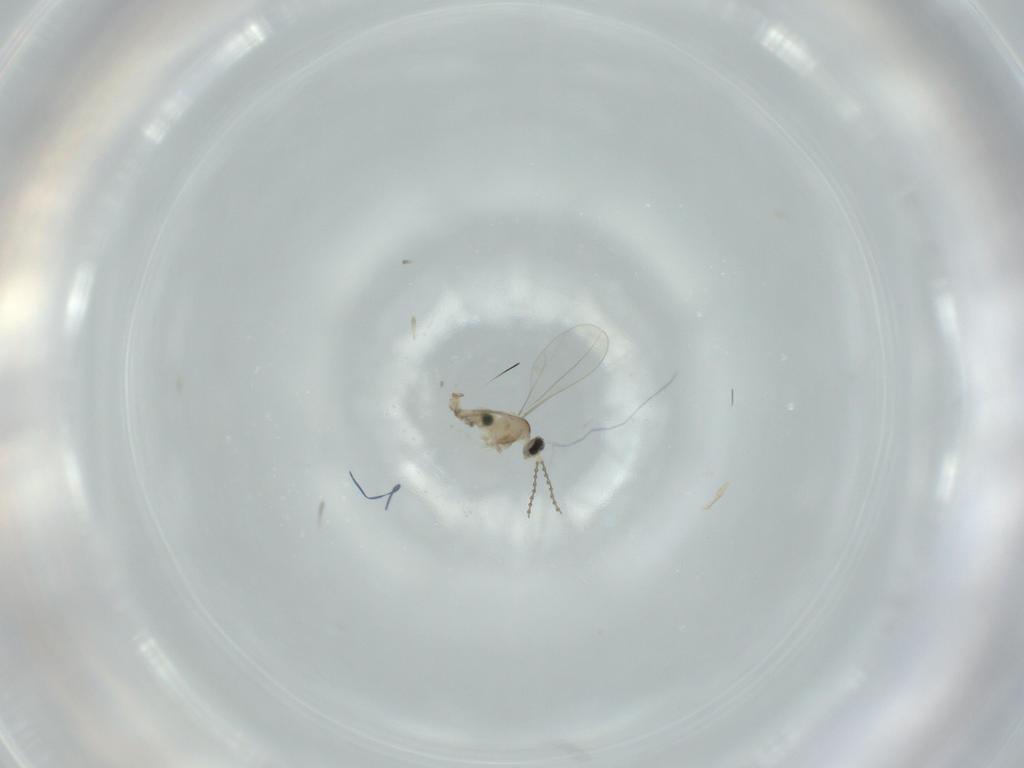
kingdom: Animalia
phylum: Arthropoda
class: Insecta
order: Diptera
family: Cecidomyiidae
